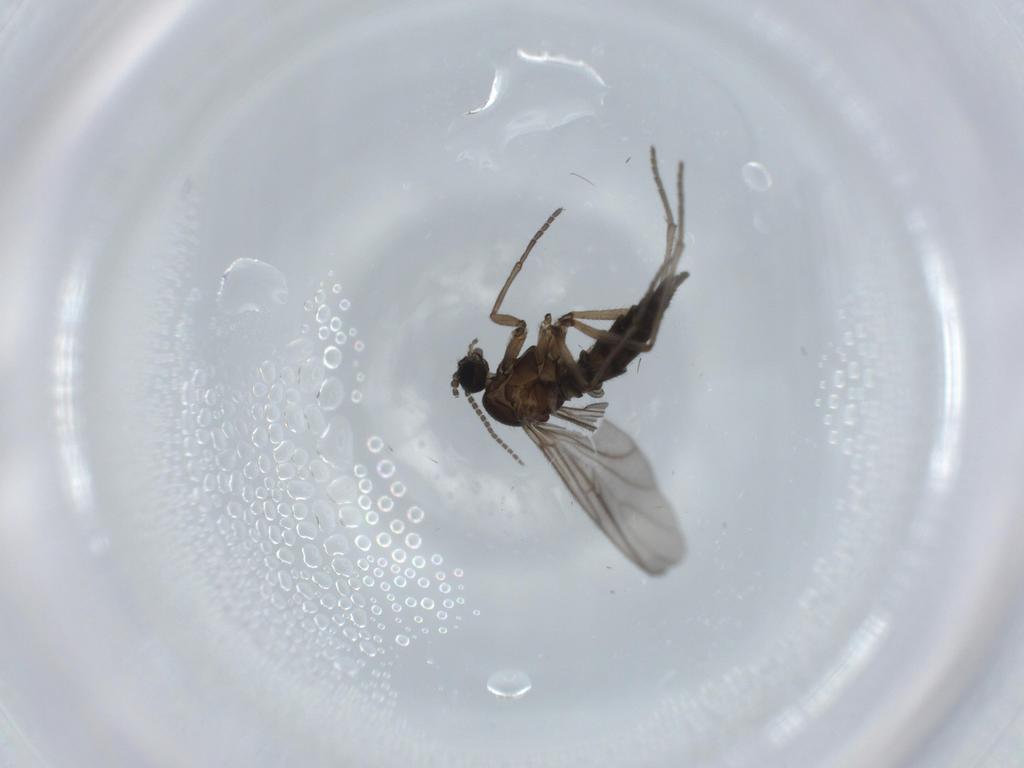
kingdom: Animalia
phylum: Arthropoda
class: Insecta
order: Diptera
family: Sciaridae
